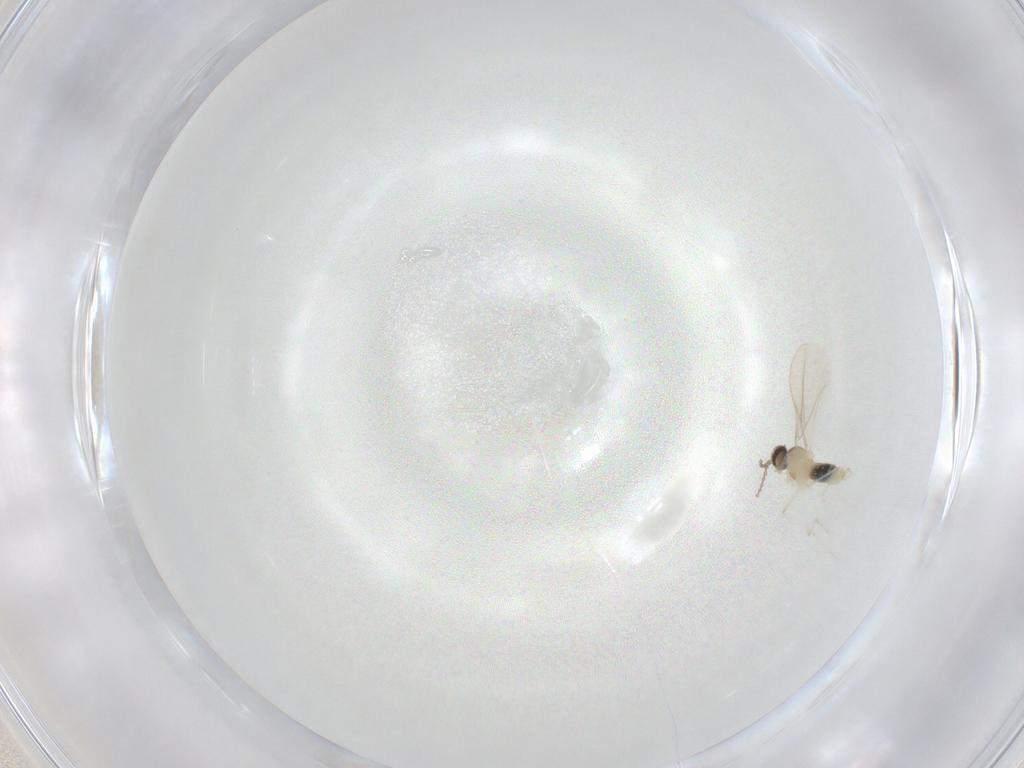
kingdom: Animalia
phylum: Arthropoda
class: Insecta
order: Diptera
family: Cecidomyiidae
